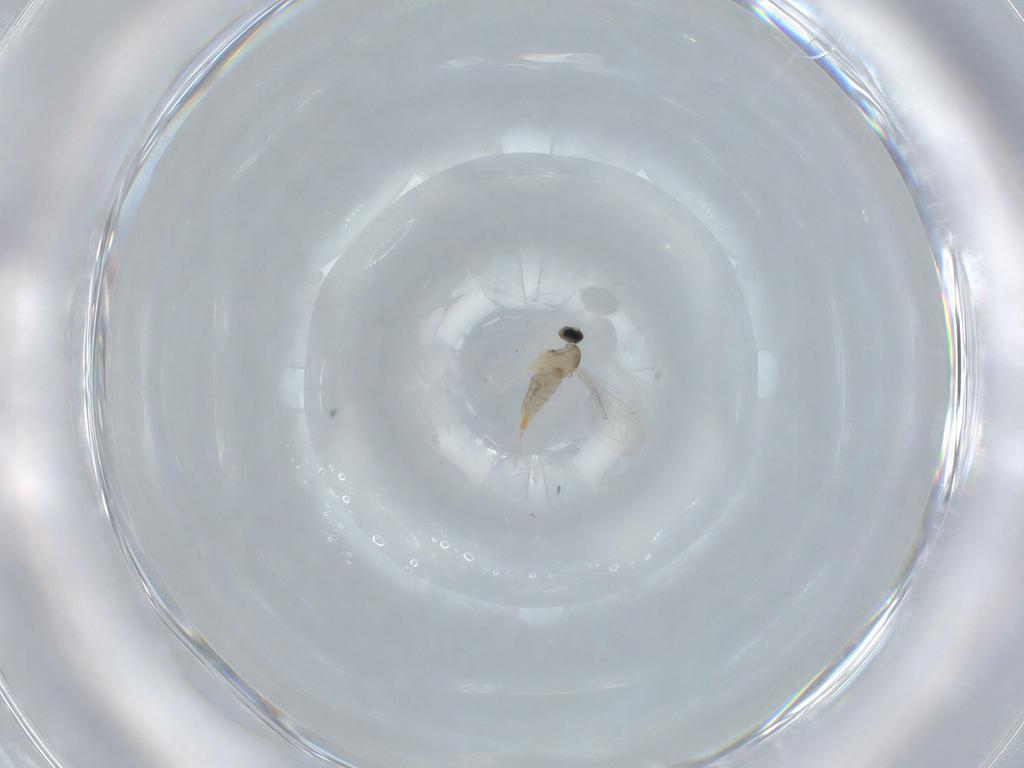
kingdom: Animalia
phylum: Arthropoda
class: Insecta
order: Diptera
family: Cecidomyiidae
